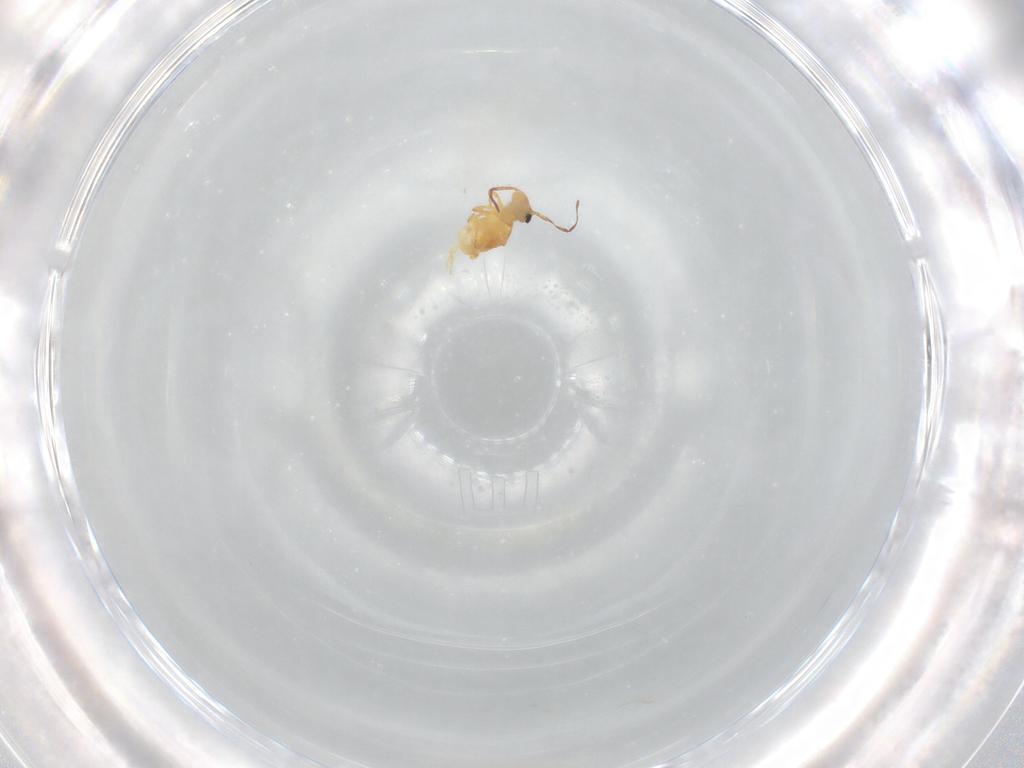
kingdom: Animalia
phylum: Arthropoda
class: Collembola
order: Symphypleona
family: Bourletiellidae
